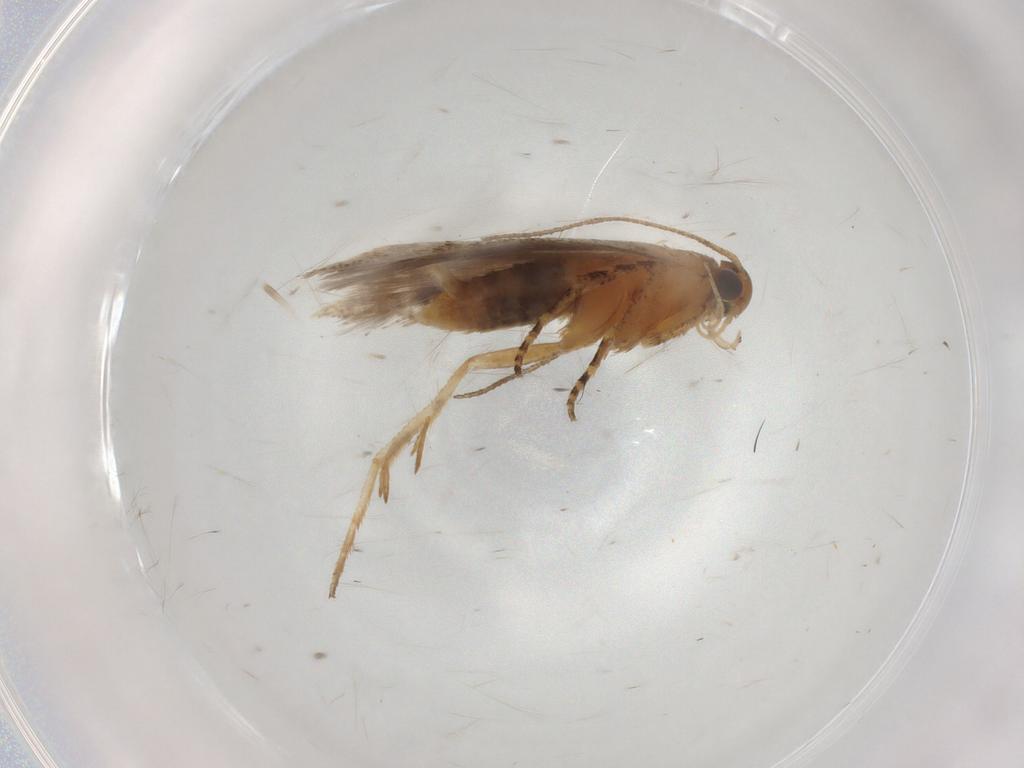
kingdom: Animalia
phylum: Arthropoda
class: Insecta
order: Lepidoptera
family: Gelechiidae
